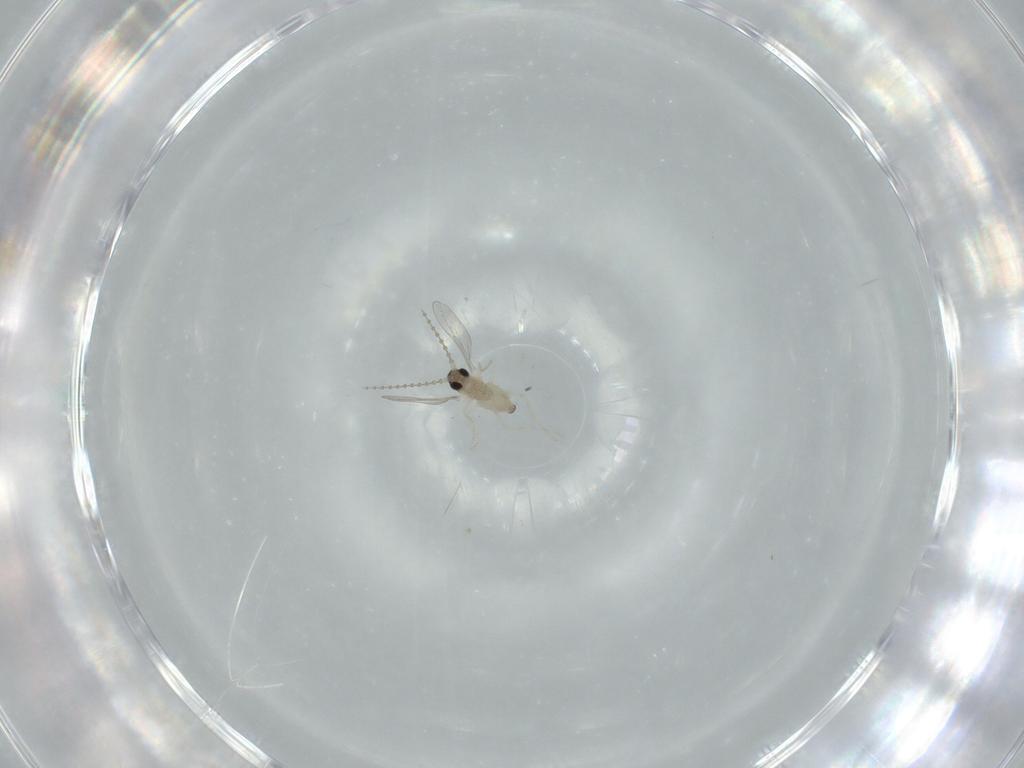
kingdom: Animalia
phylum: Arthropoda
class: Insecta
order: Diptera
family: Cecidomyiidae
